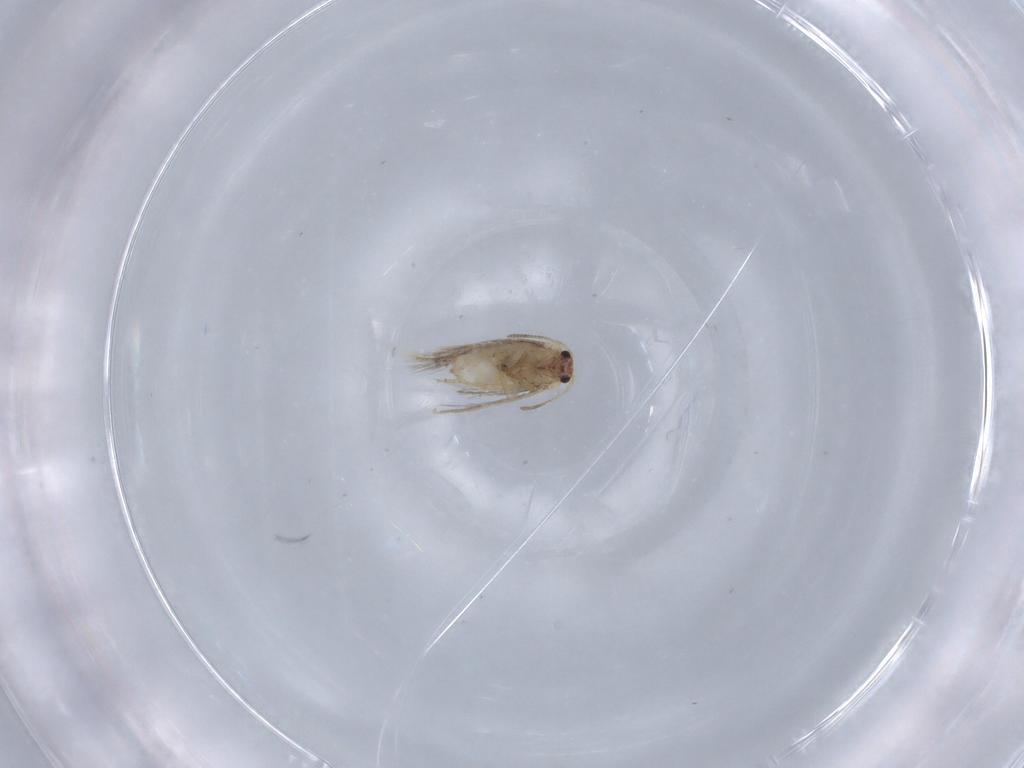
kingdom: Animalia
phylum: Arthropoda
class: Insecta
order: Lepidoptera
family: Nepticulidae
